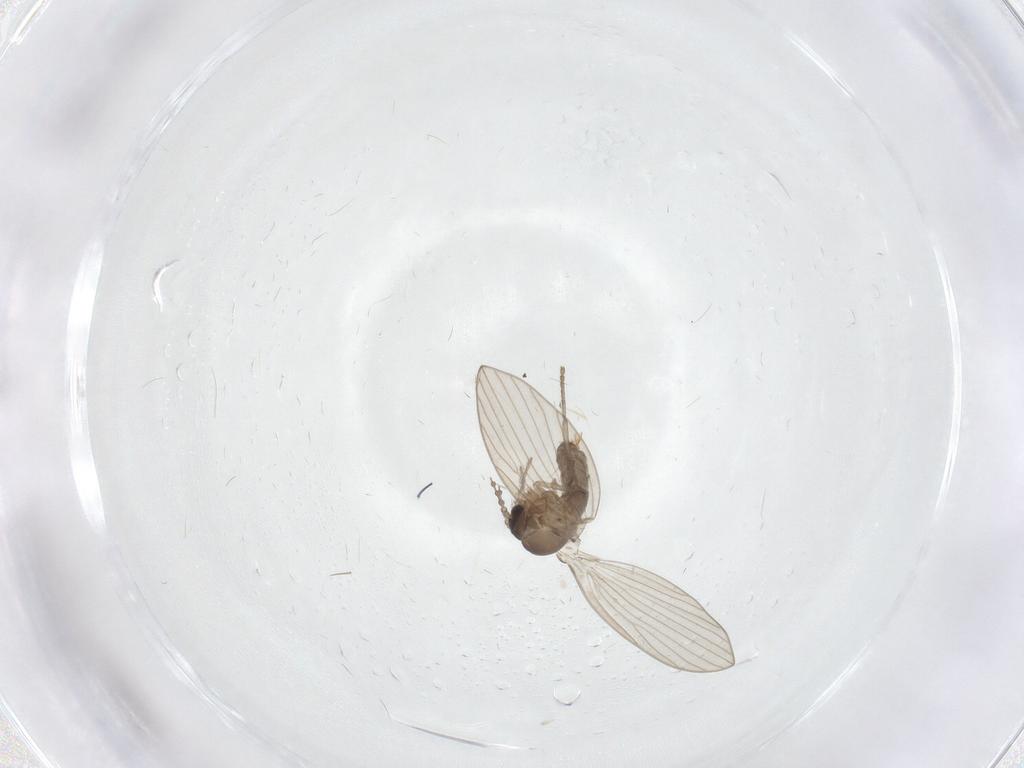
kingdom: Animalia
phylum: Arthropoda
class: Insecta
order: Diptera
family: Psychodidae
